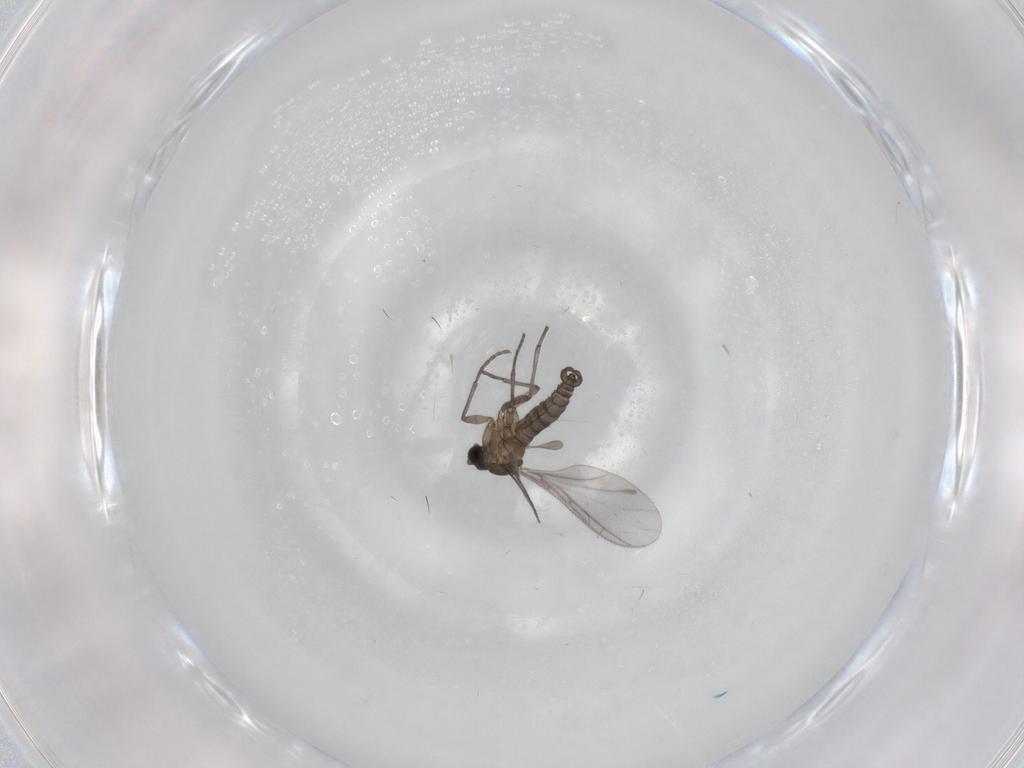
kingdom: Animalia
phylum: Arthropoda
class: Insecta
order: Diptera
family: Sciaridae
